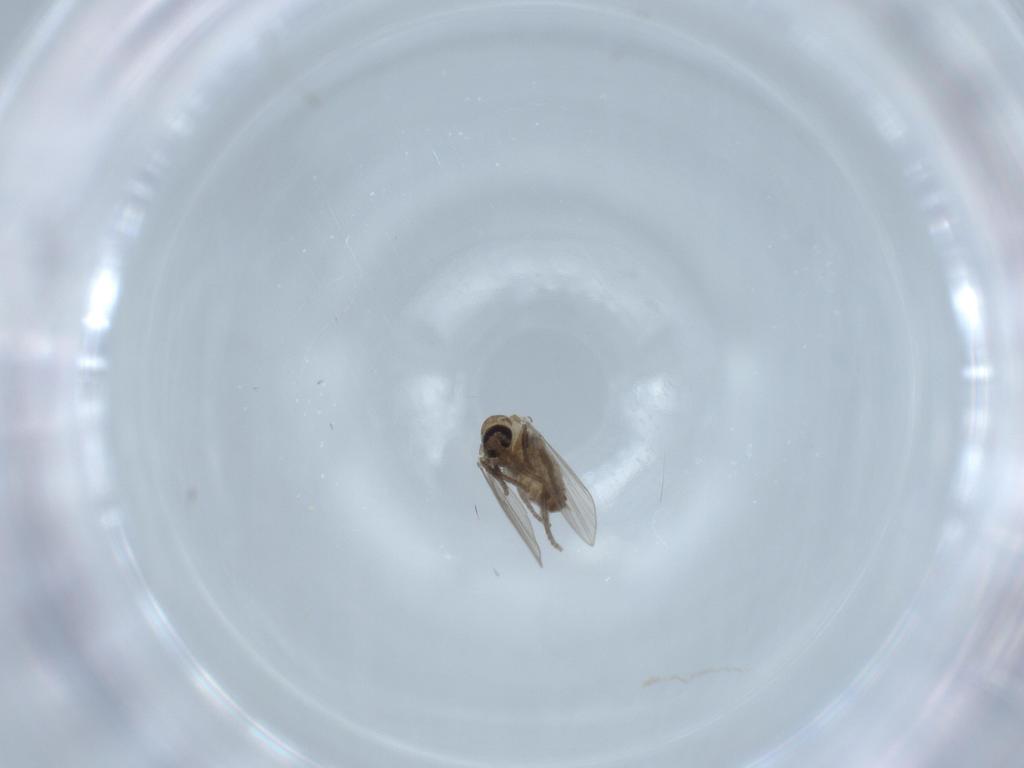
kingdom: Animalia
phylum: Arthropoda
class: Insecta
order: Diptera
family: Psychodidae
